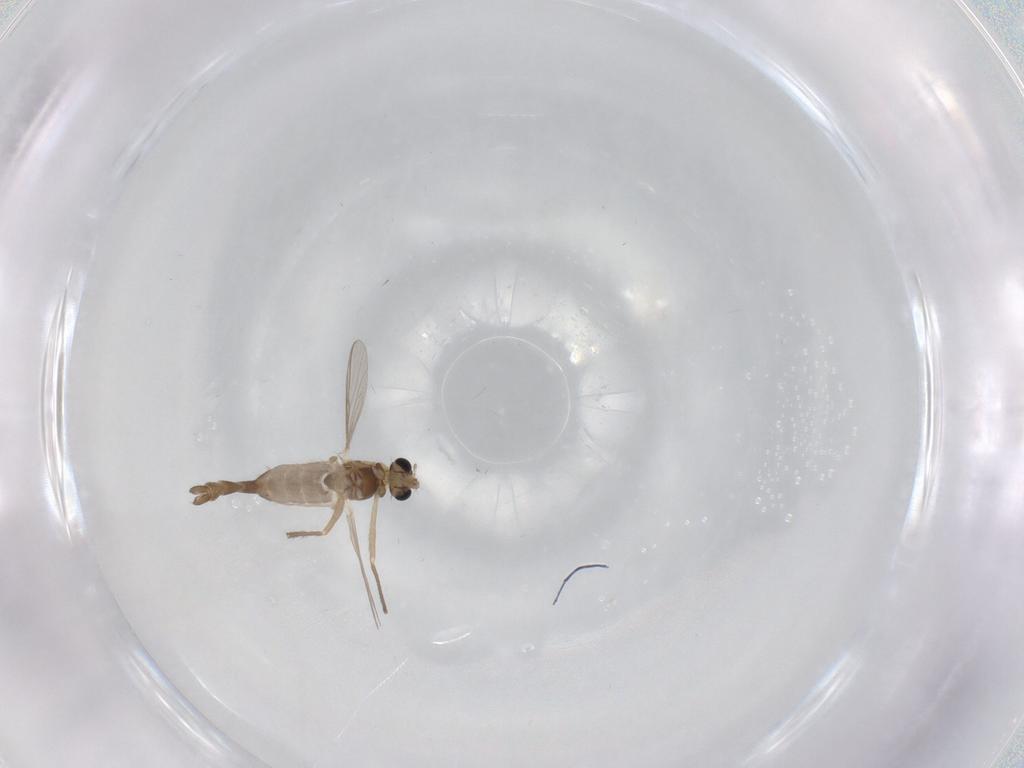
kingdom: Animalia
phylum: Arthropoda
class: Insecta
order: Diptera
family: Chironomidae
